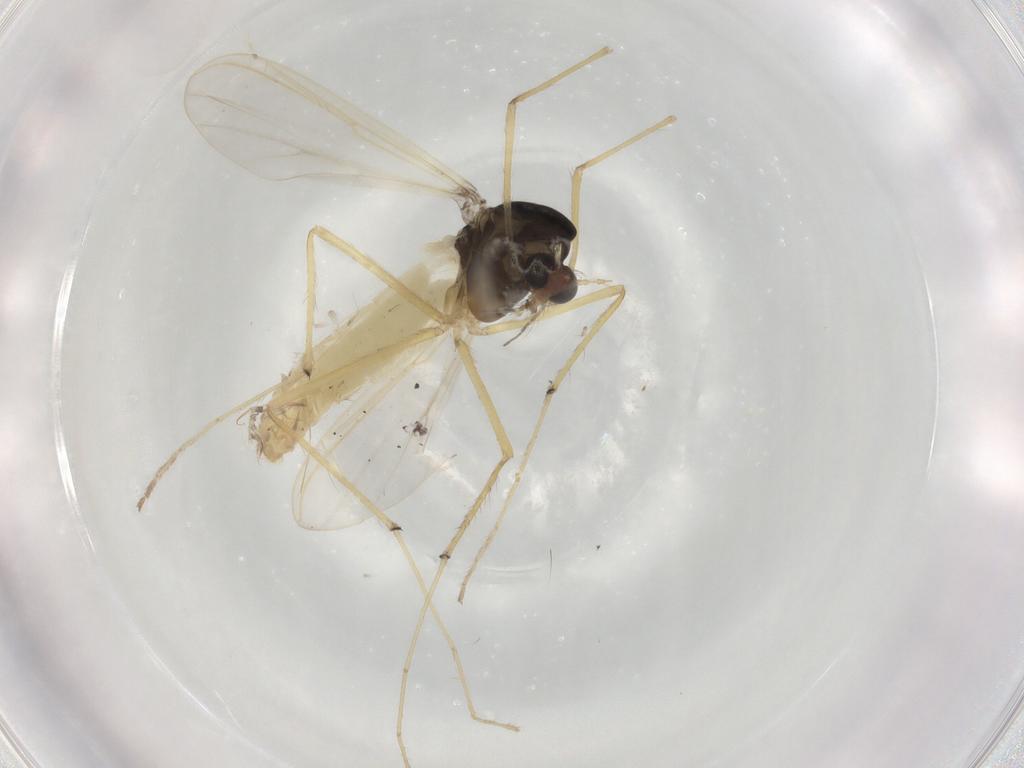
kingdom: Animalia
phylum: Arthropoda
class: Insecta
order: Diptera
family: Chironomidae
